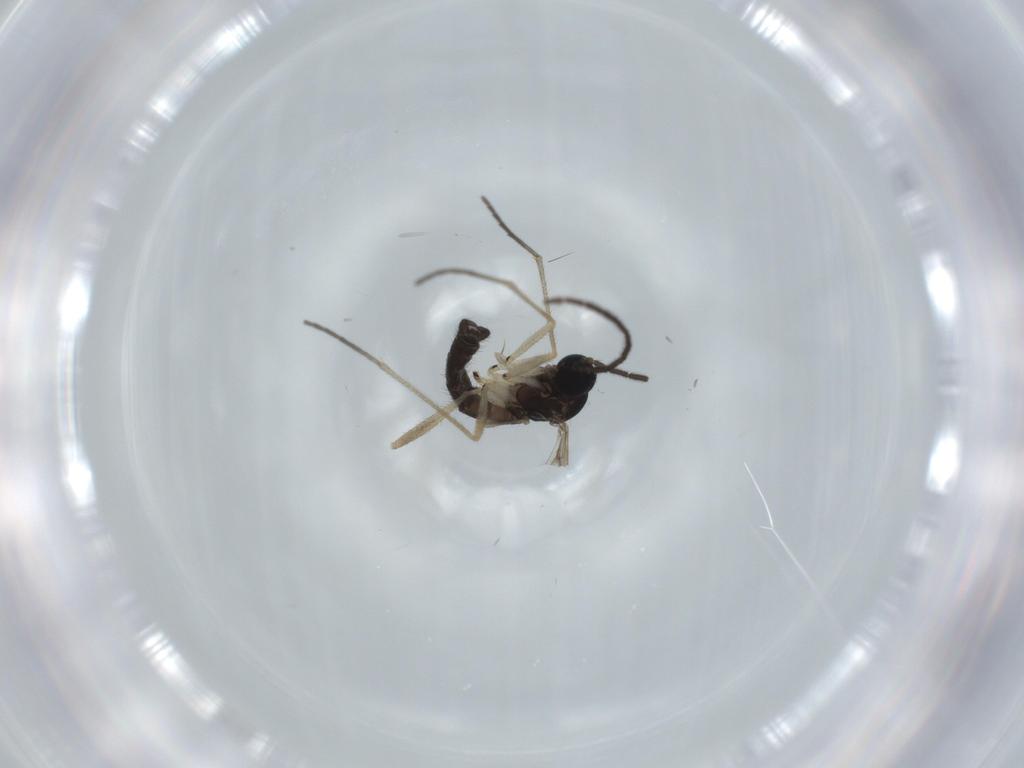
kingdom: Animalia
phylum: Arthropoda
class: Insecta
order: Diptera
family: Sciaridae
